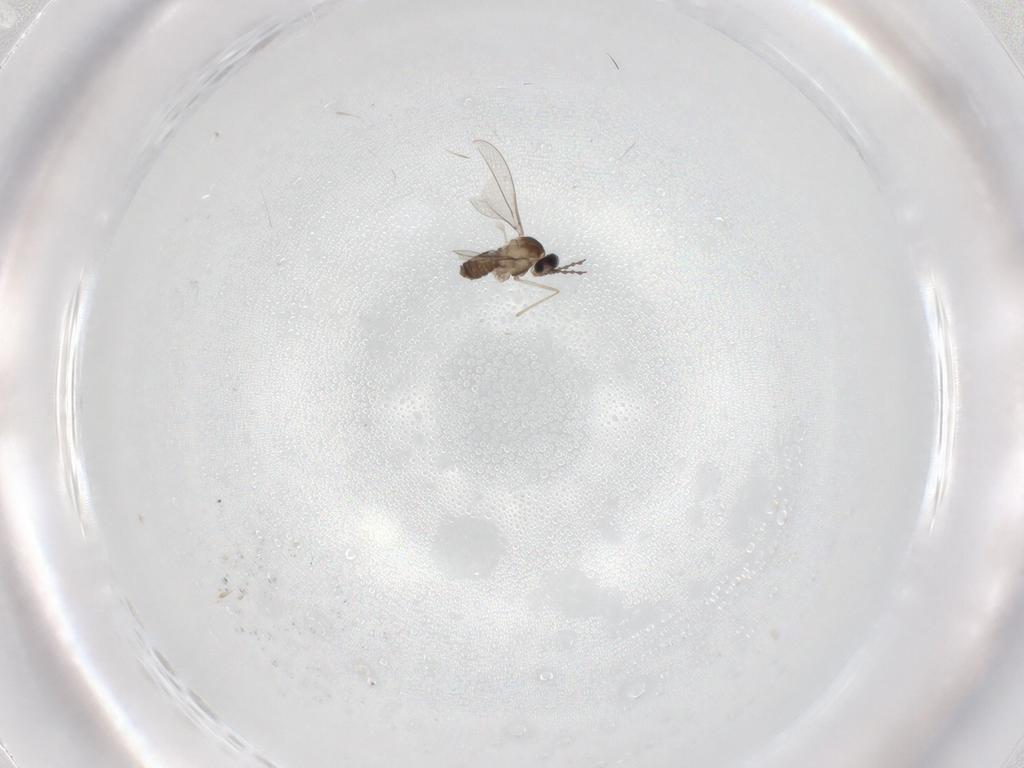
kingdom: Animalia
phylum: Arthropoda
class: Insecta
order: Diptera
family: Cecidomyiidae
